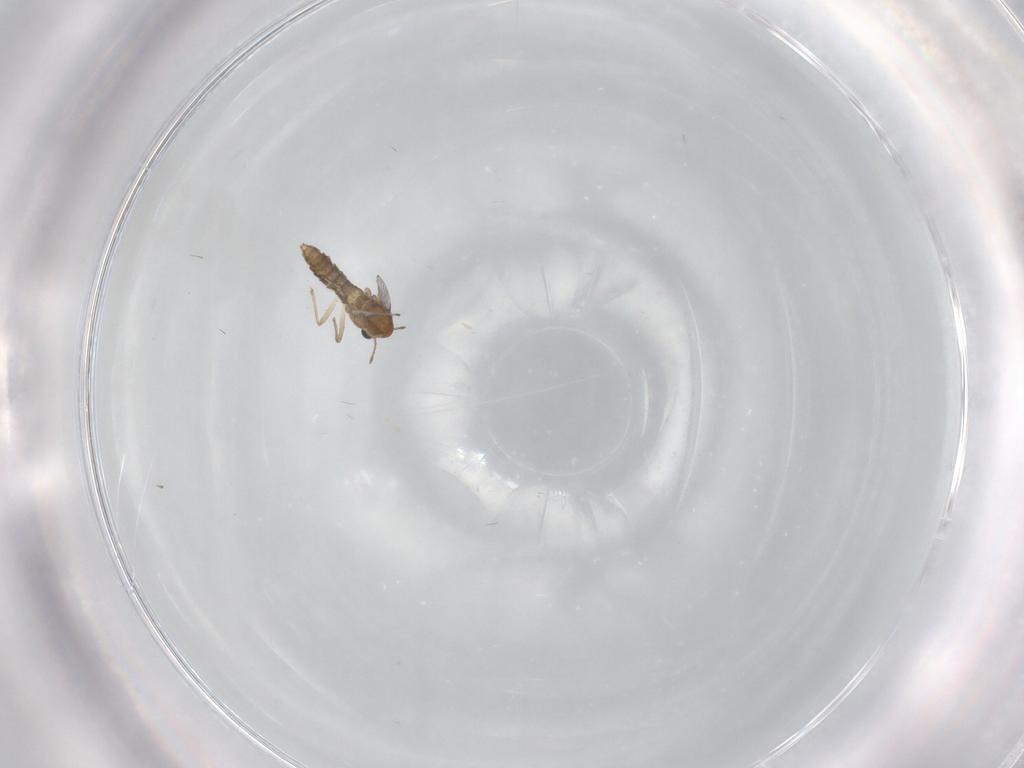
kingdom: Animalia
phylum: Arthropoda
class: Insecta
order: Diptera
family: Chironomidae
